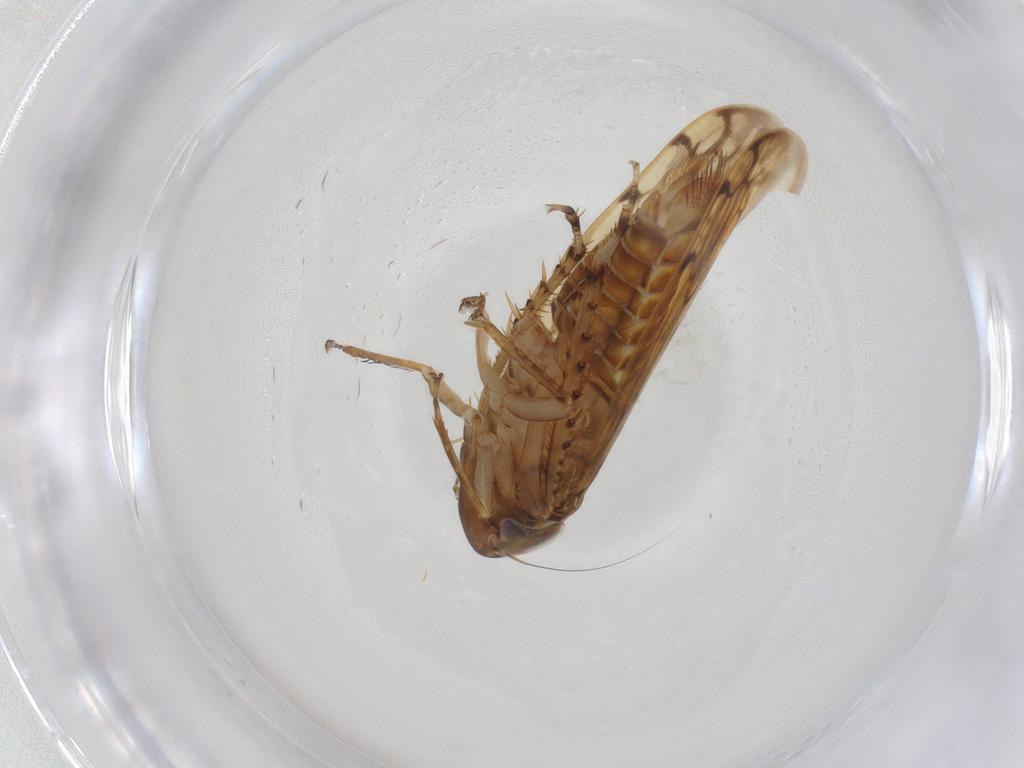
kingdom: Animalia
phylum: Arthropoda
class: Insecta
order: Hemiptera
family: Cicadellidae
